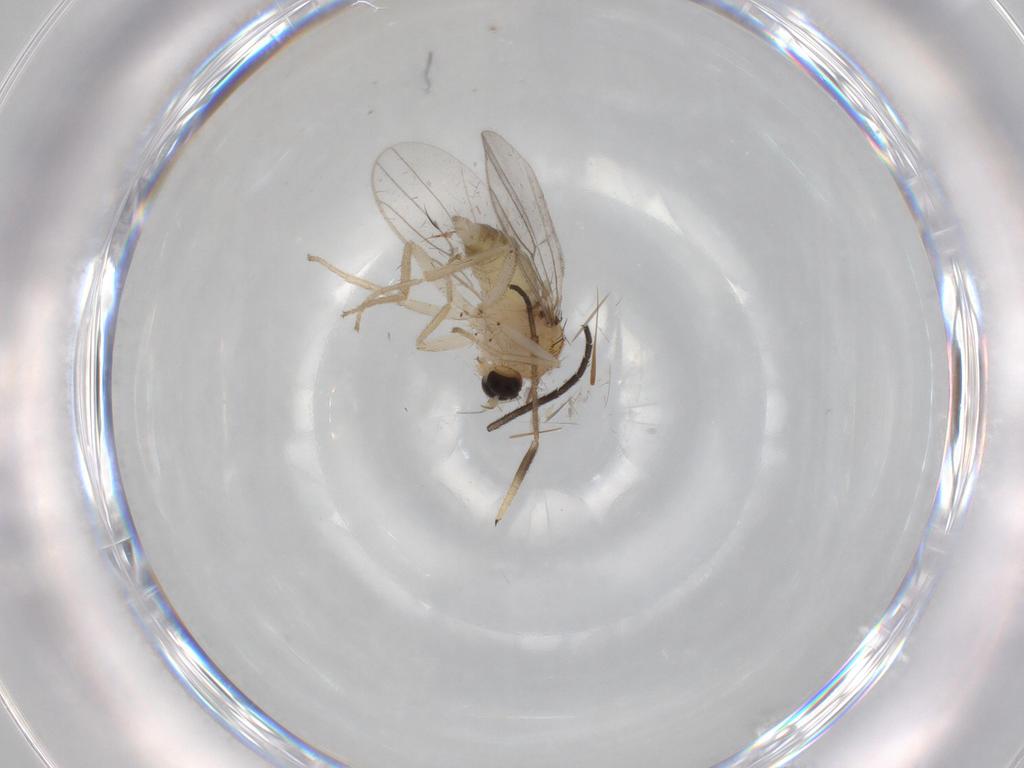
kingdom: Animalia
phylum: Arthropoda
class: Insecta
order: Diptera
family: Hybotidae
